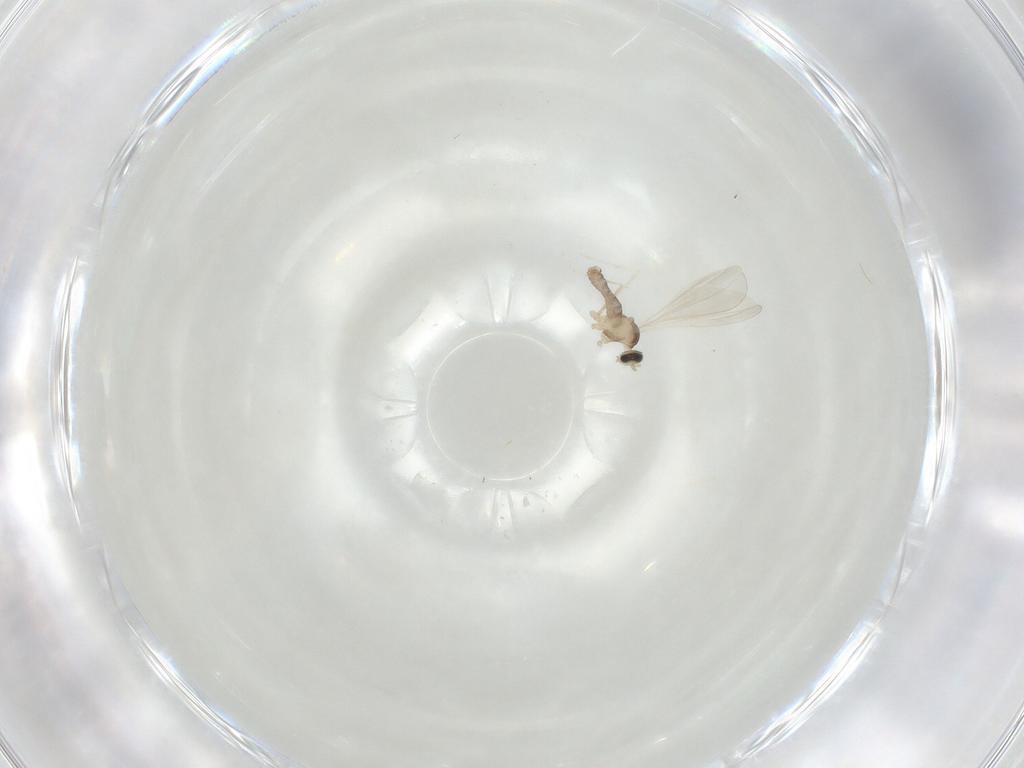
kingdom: Animalia
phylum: Arthropoda
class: Insecta
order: Diptera
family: Cecidomyiidae
